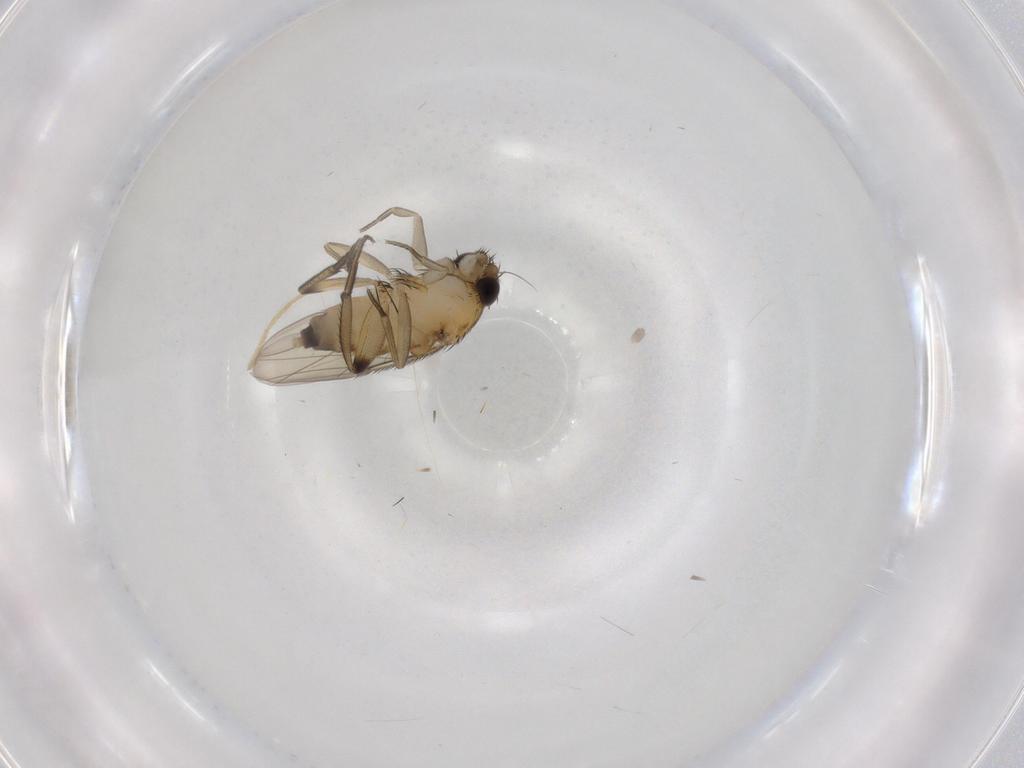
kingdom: Animalia
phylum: Arthropoda
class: Insecta
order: Diptera
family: Phoridae
